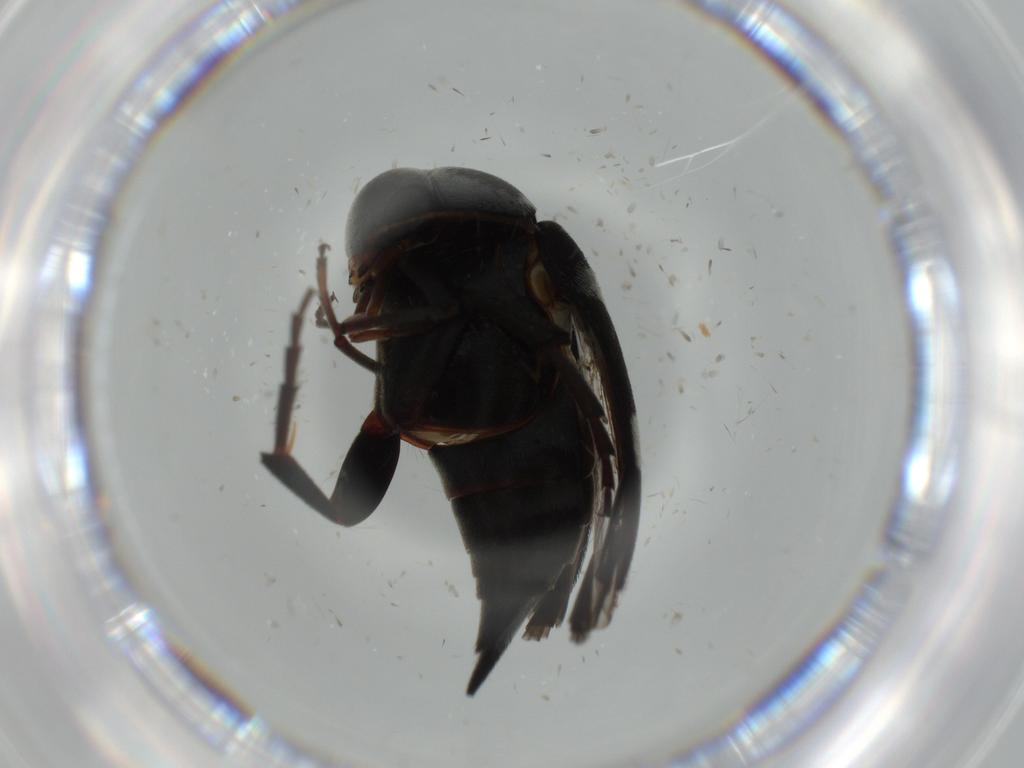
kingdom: Animalia
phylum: Arthropoda
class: Insecta
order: Coleoptera
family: Mordellidae
